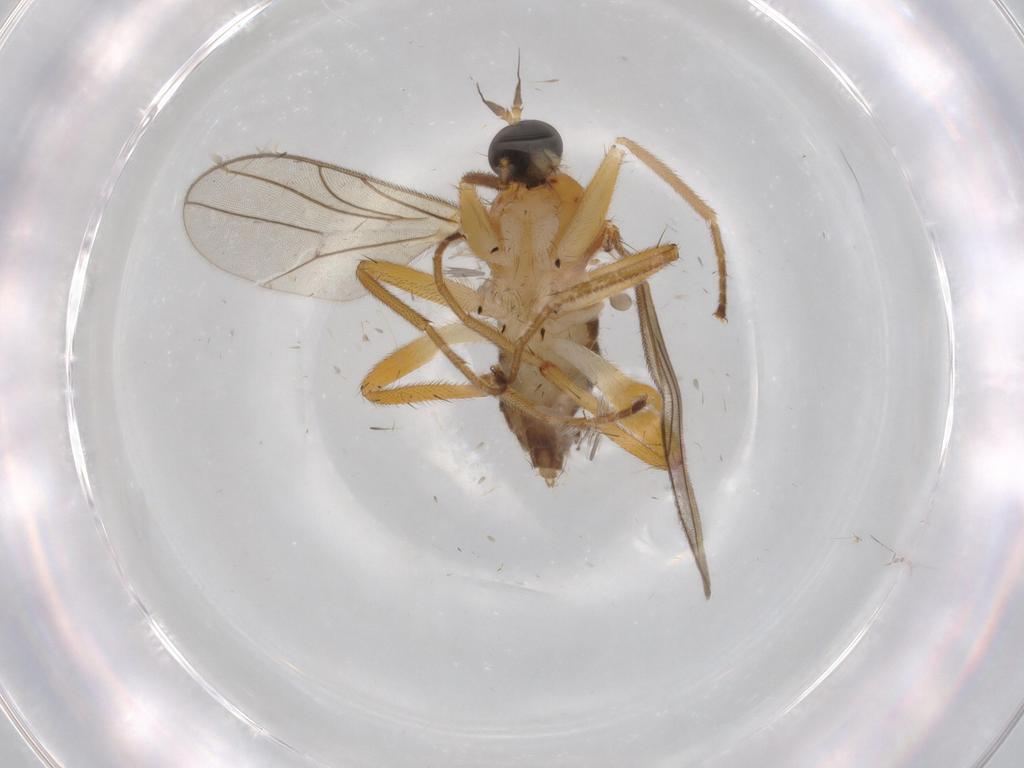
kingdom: Animalia
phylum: Arthropoda
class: Insecta
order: Diptera
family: Hybotidae
